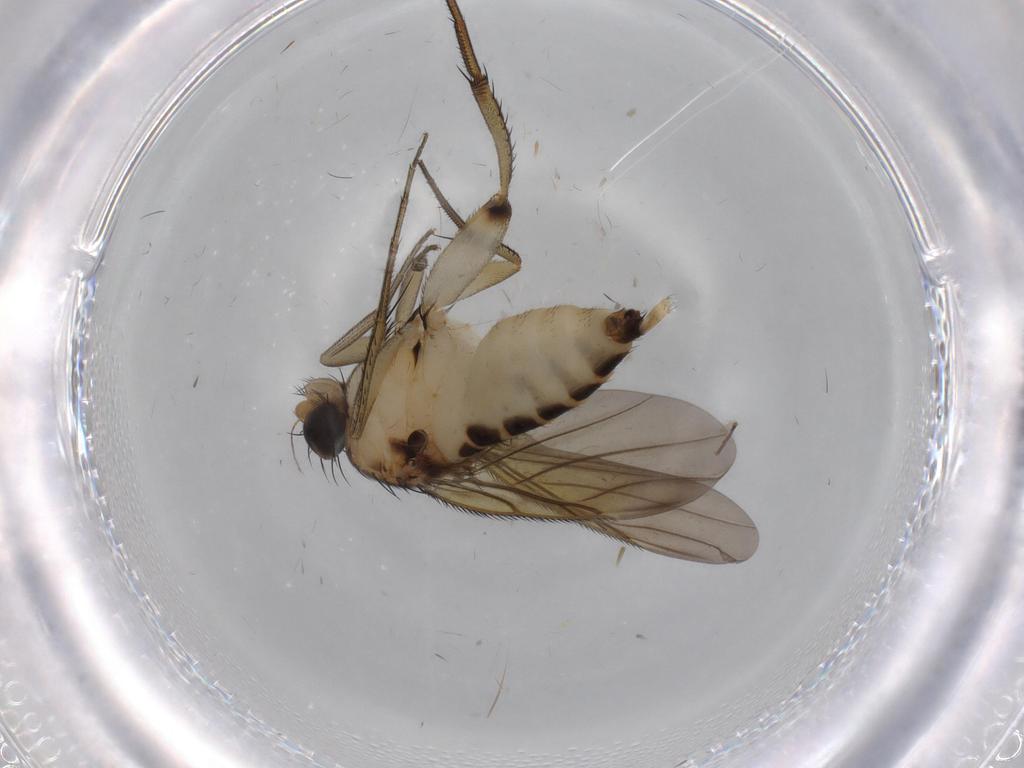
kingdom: Animalia
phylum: Arthropoda
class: Insecta
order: Diptera
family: Phoridae
